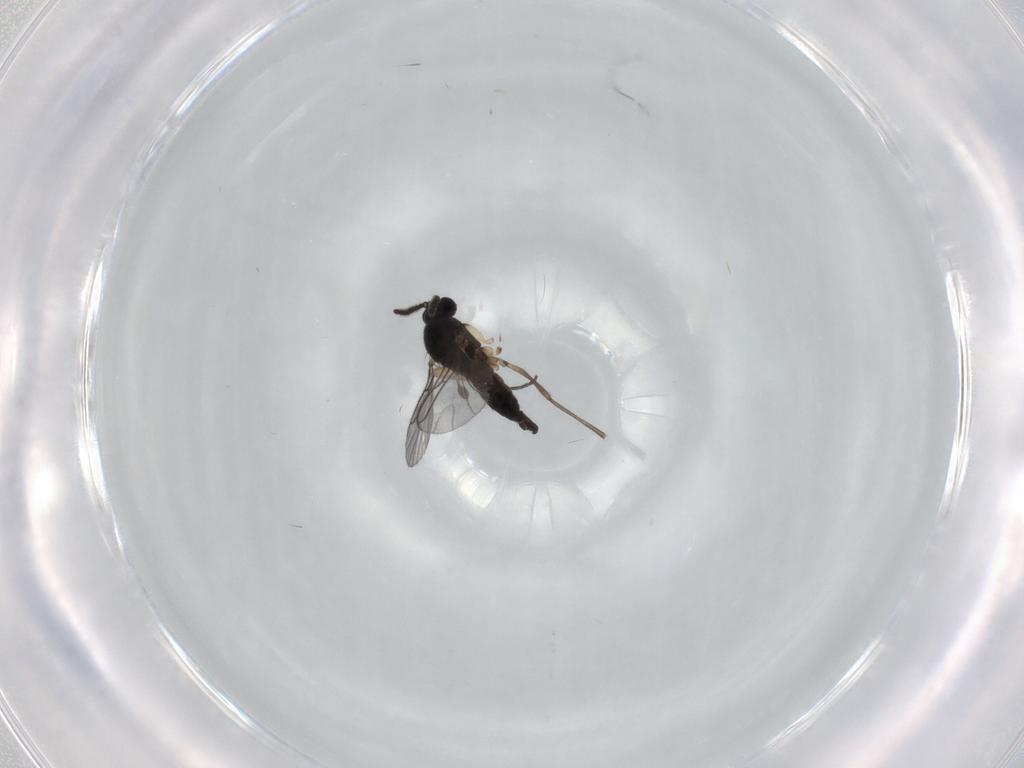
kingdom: Animalia
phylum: Arthropoda
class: Insecta
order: Diptera
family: Sciaridae
